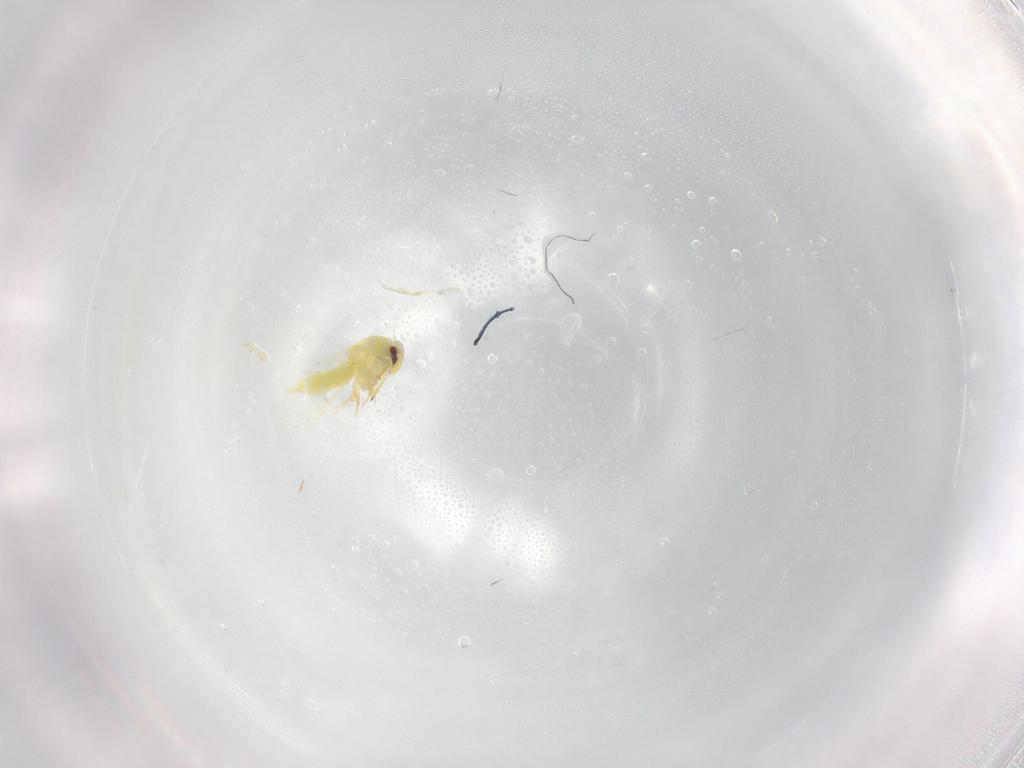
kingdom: Animalia
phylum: Arthropoda
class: Insecta
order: Hemiptera
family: Aleyrodidae
